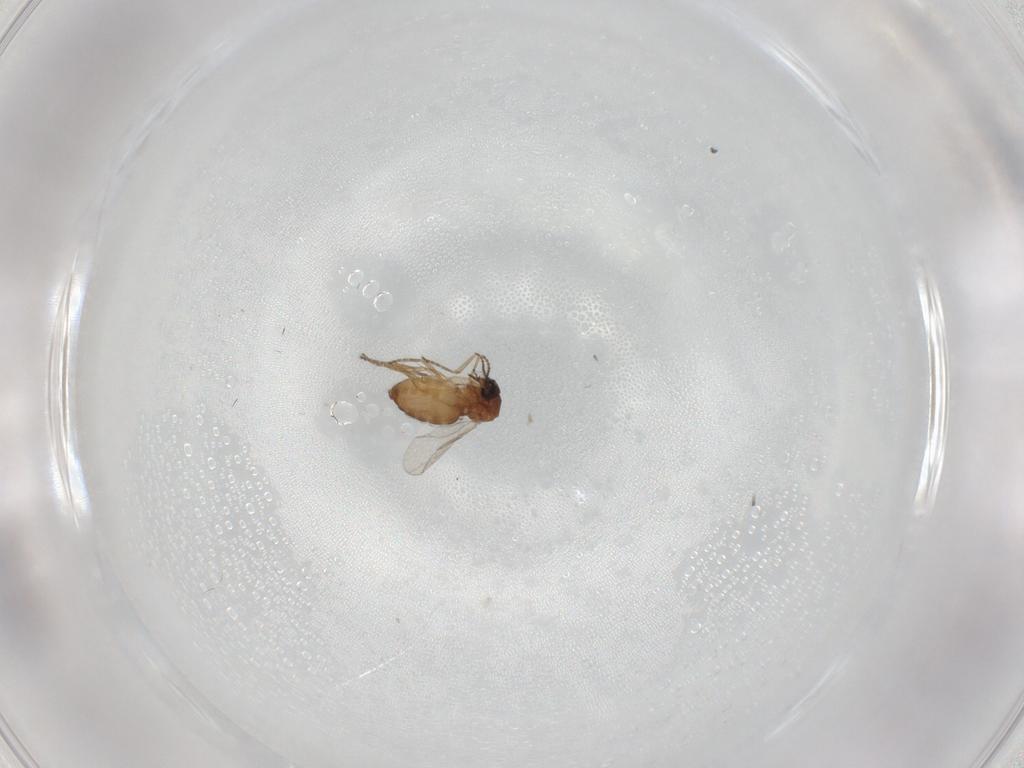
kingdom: Animalia
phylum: Arthropoda
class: Insecta
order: Diptera
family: Ceratopogonidae
